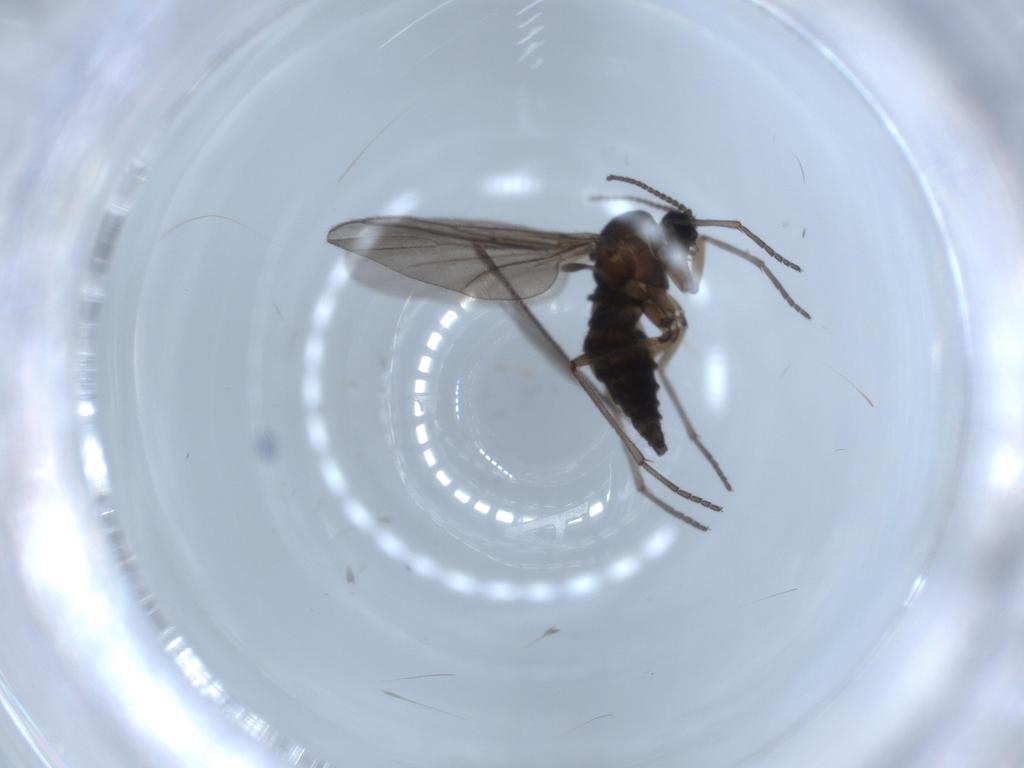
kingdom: Animalia
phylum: Arthropoda
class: Insecta
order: Diptera
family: Sciaridae
